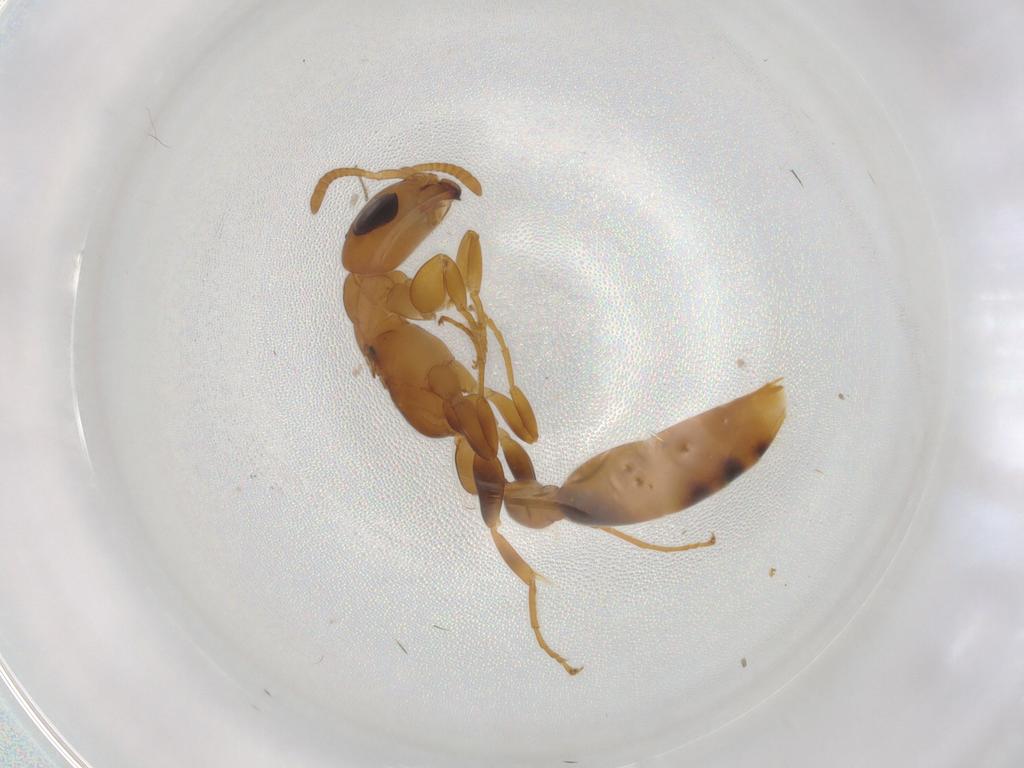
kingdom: Animalia
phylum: Arthropoda
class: Insecta
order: Hymenoptera
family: Formicidae
